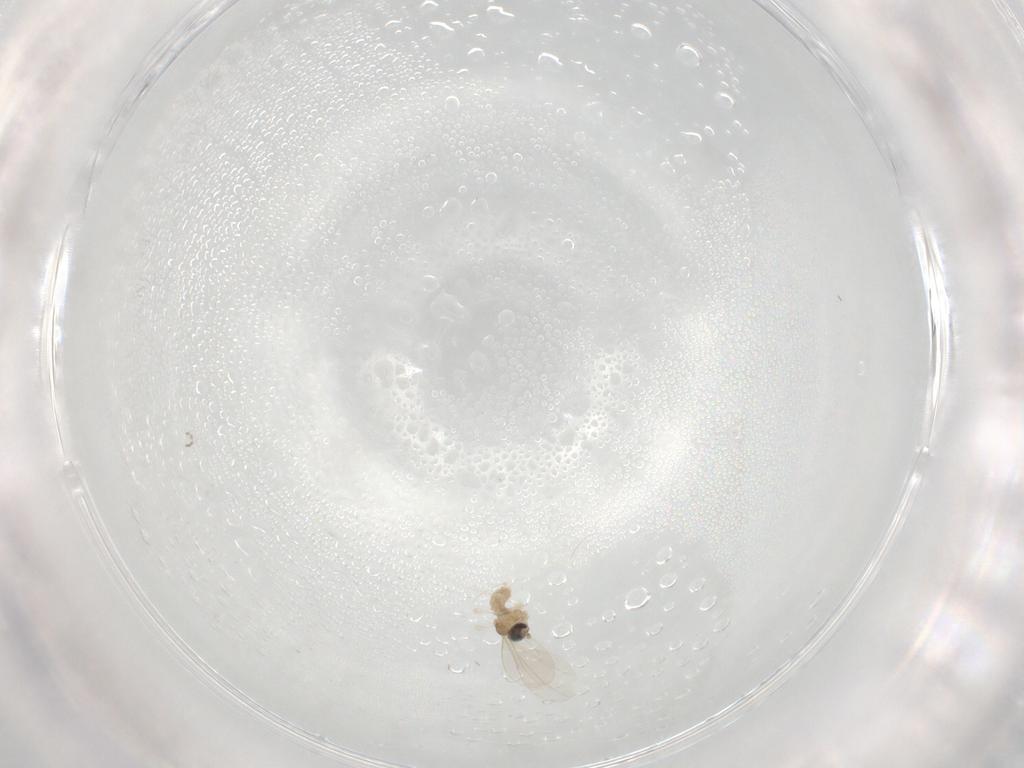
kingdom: Animalia
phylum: Arthropoda
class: Insecta
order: Diptera
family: Cecidomyiidae
